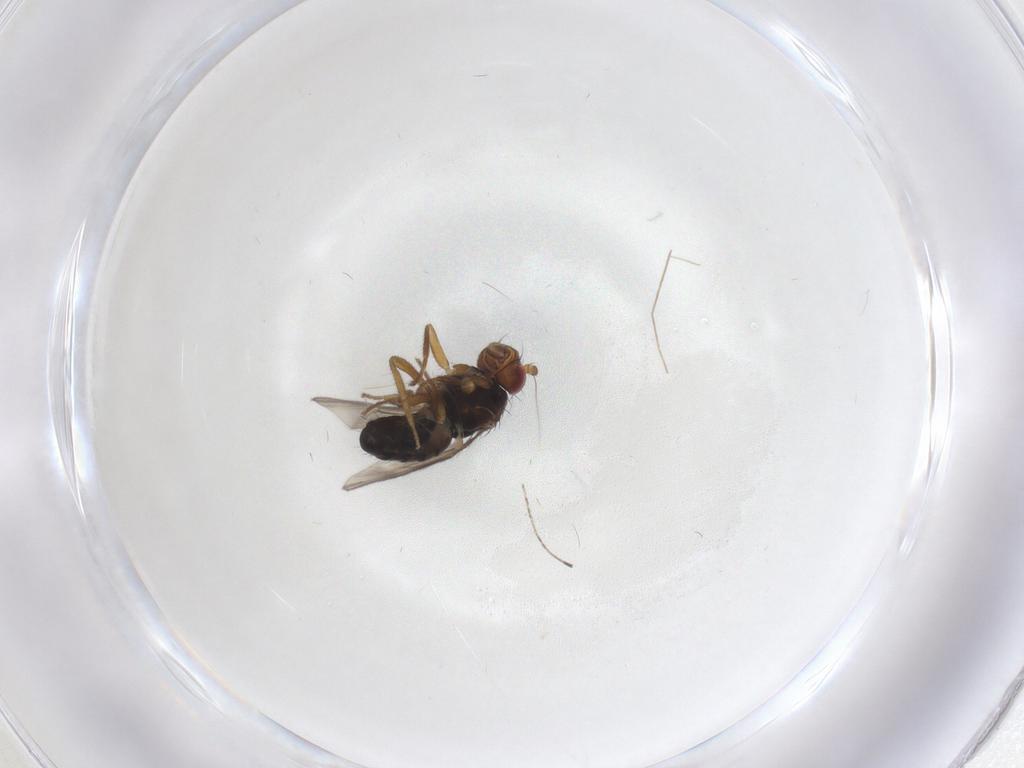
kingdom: Animalia
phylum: Arthropoda
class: Insecta
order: Diptera
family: Sphaeroceridae
